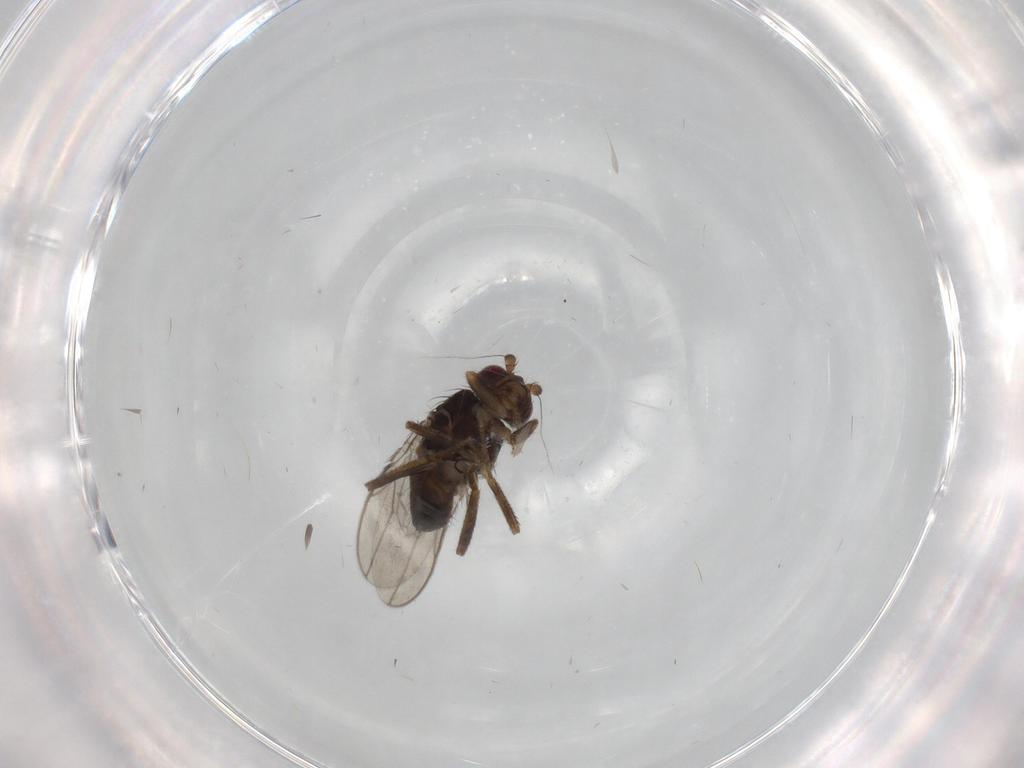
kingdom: Animalia
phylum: Arthropoda
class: Insecta
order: Diptera
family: Sphaeroceridae
